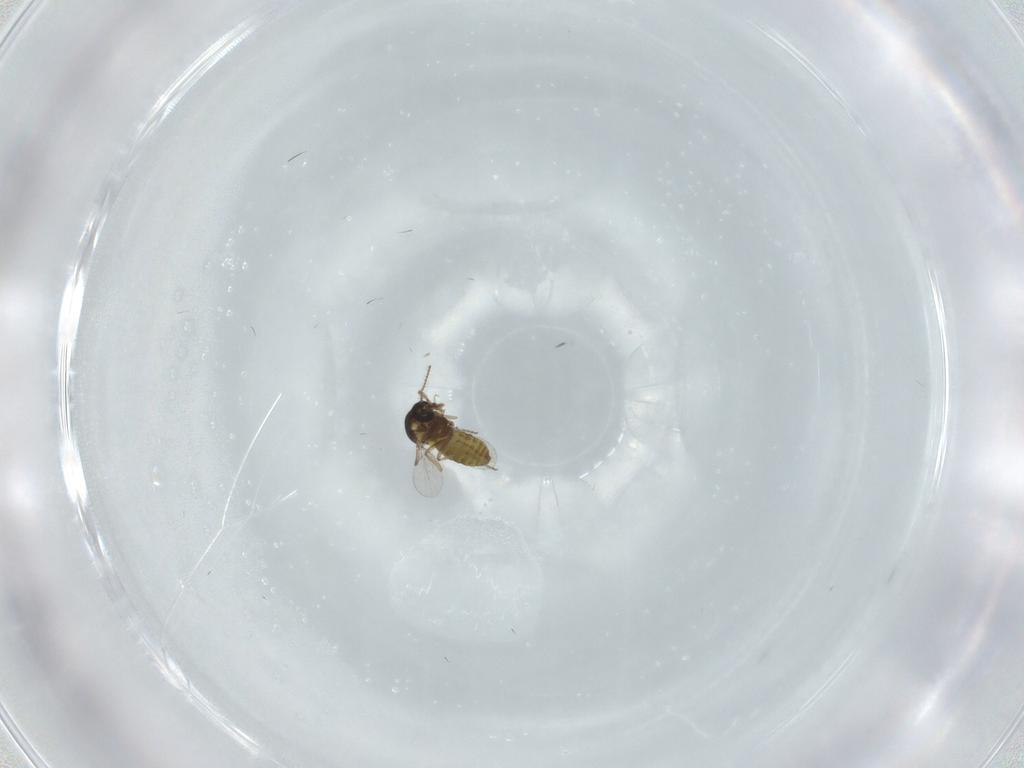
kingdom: Animalia
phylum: Arthropoda
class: Insecta
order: Diptera
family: Ceratopogonidae
